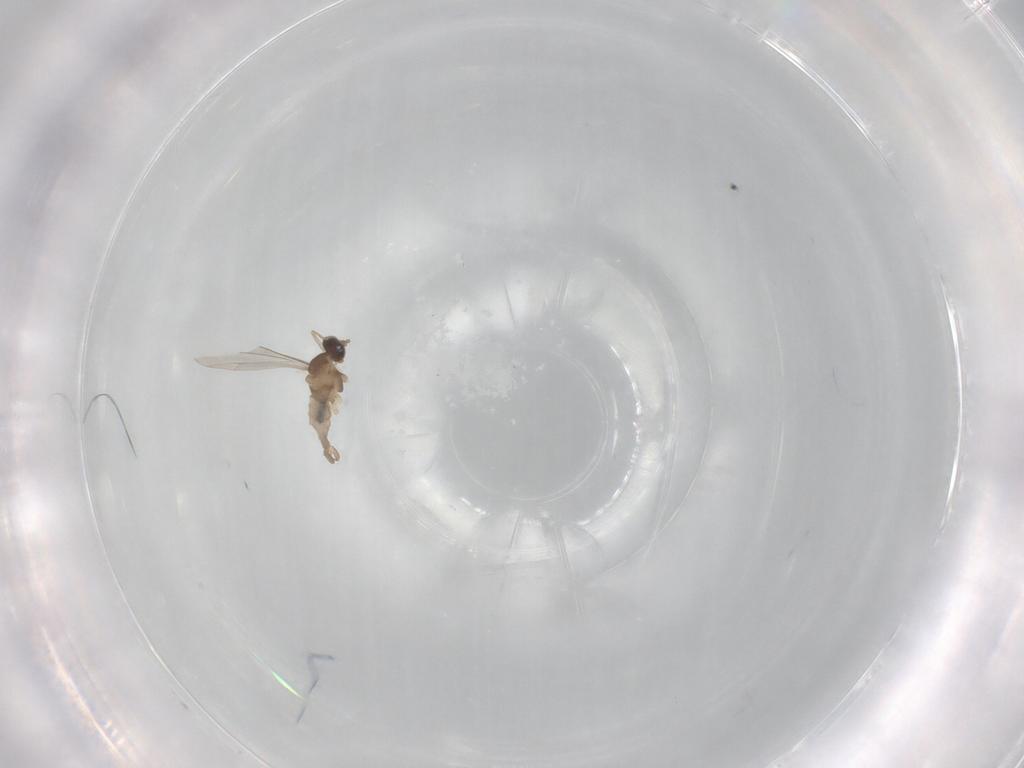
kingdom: Animalia
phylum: Arthropoda
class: Insecta
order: Diptera
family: Cecidomyiidae
